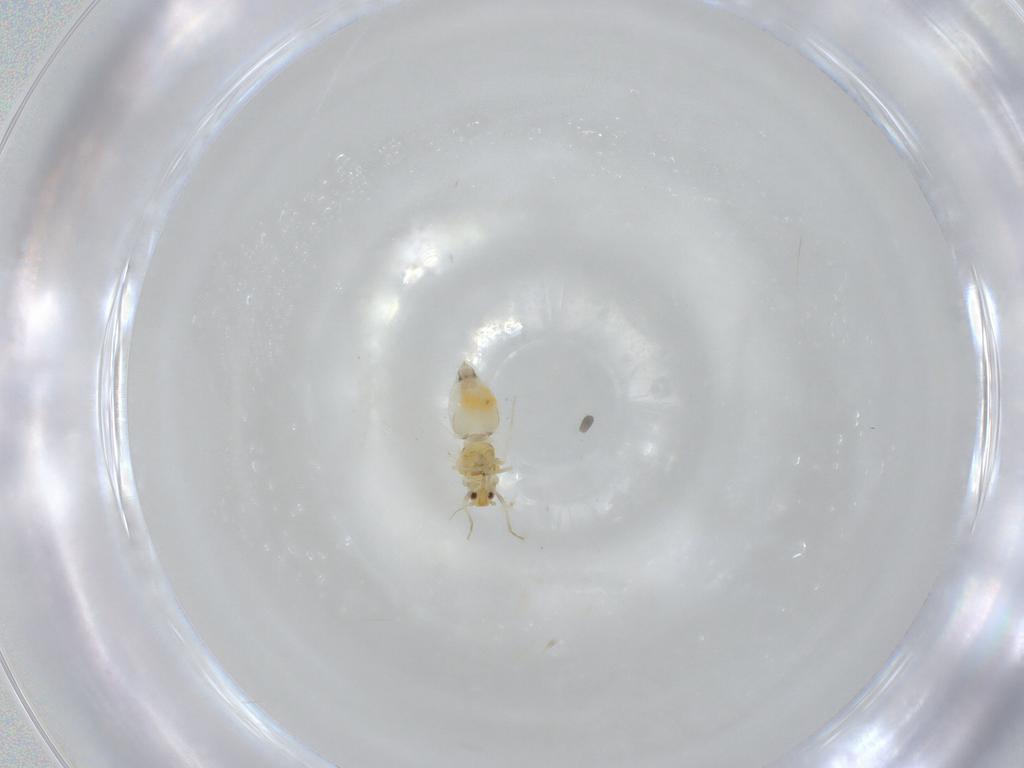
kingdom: Animalia
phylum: Arthropoda
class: Insecta
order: Hemiptera
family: Aleyrodidae
